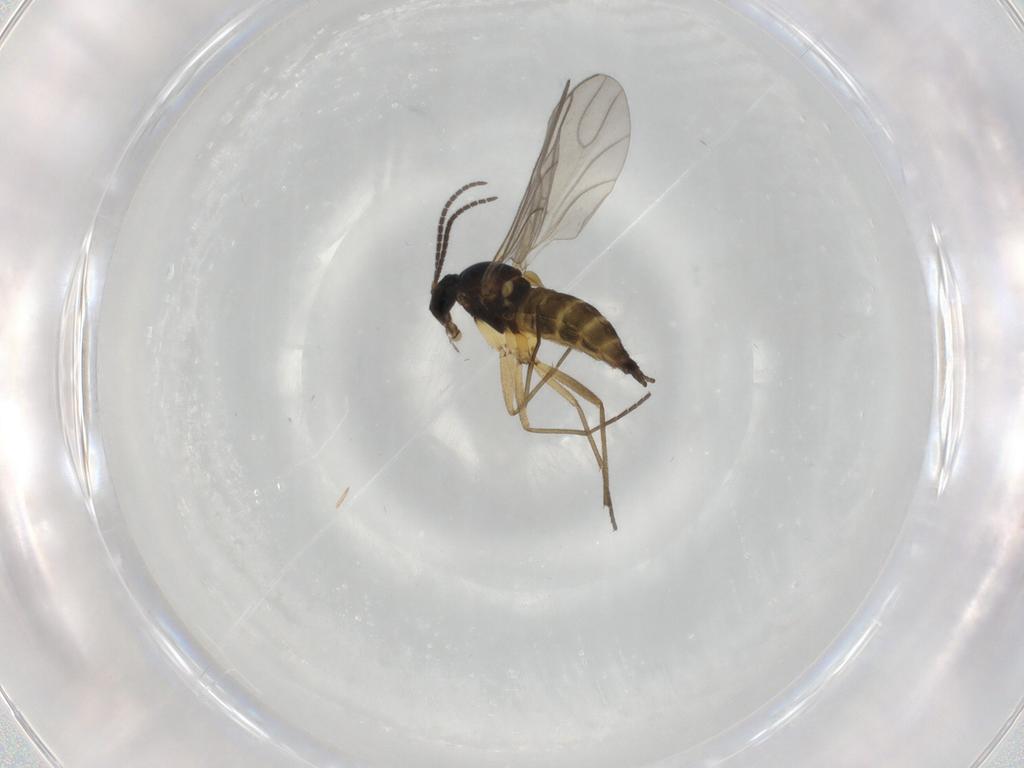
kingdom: Animalia
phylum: Arthropoda
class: Insecta
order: Diptera
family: Sciaridae
